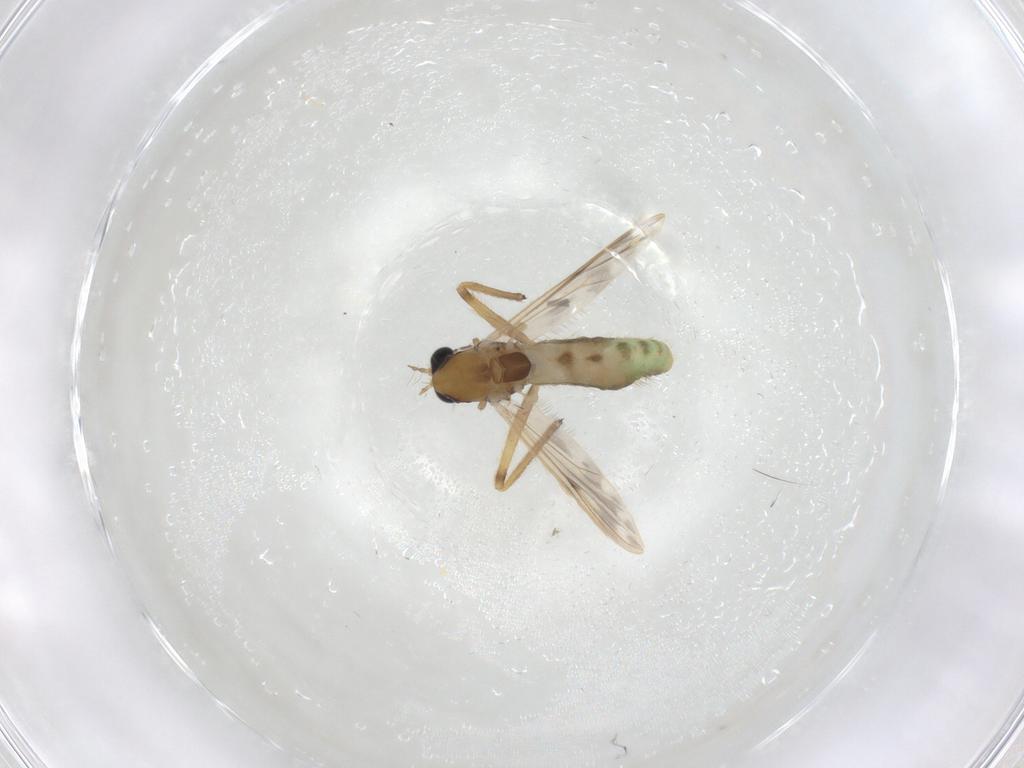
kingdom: Animalia
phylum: Arthropoda
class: Insecta
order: Diptera
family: Chironomidae
